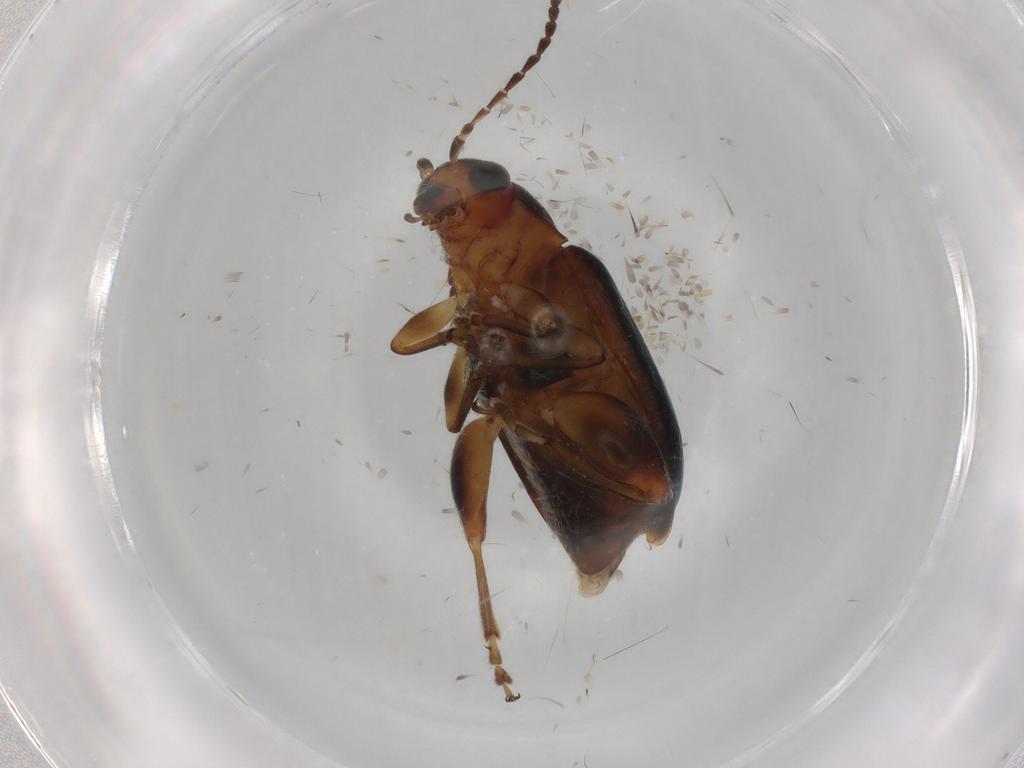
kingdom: Animalia
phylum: Arthropoda
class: Insecta
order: Coleoptera
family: Chrysomelidae
